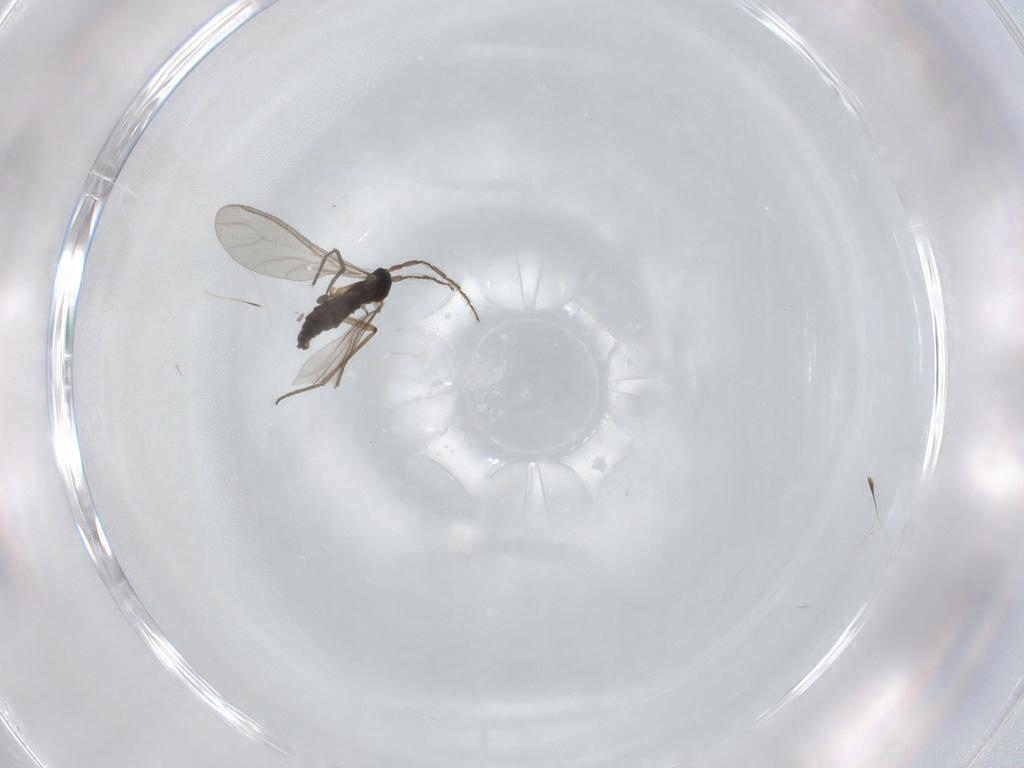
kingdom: Animalia
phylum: Arthropoda
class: Insecta
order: Diptera
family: Sciaridae
